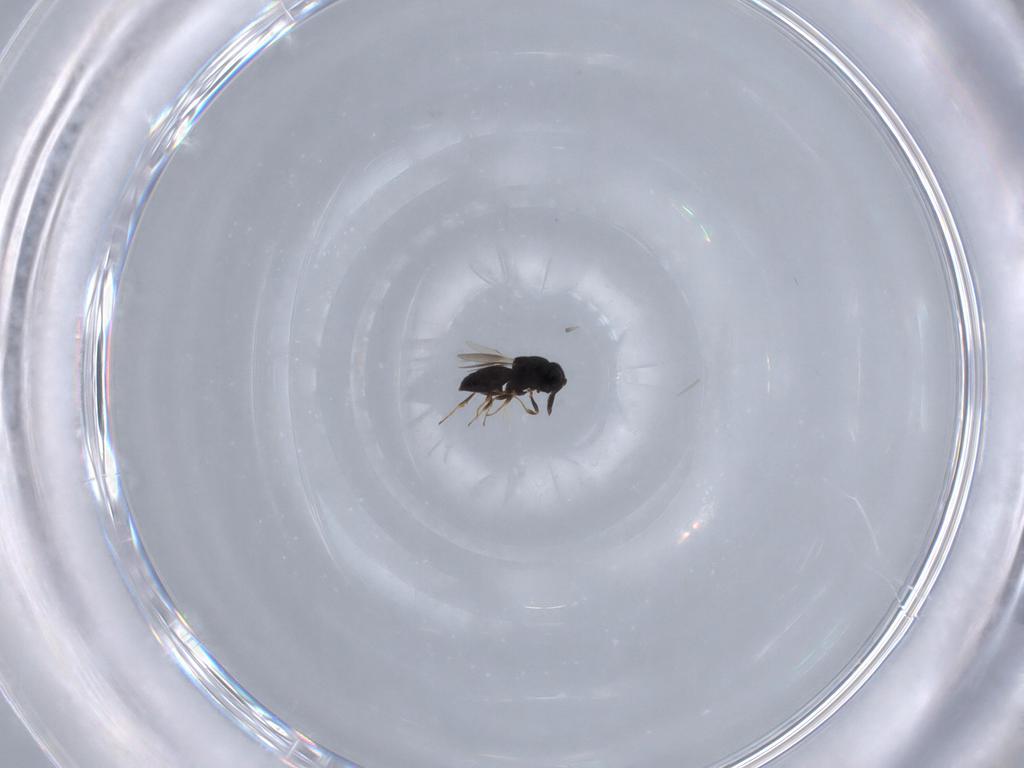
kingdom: Animalia
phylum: Arthropoda
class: Insecta
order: Hymenoptera
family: Scelionidae
